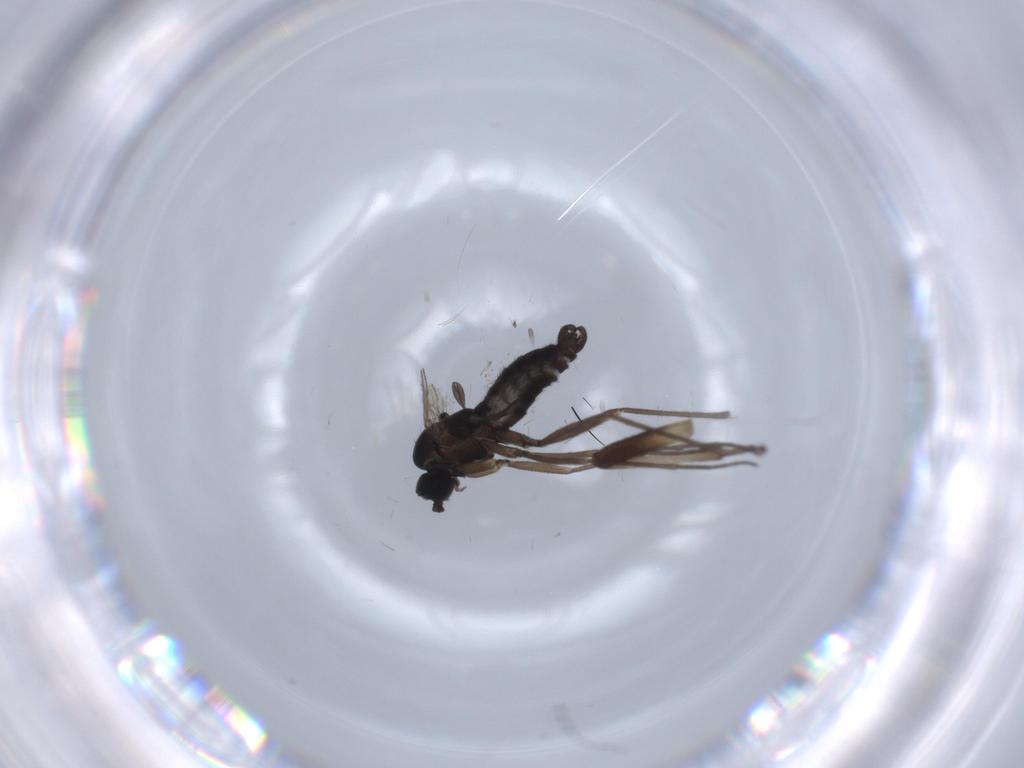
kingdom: Animalia
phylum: Arthropoda
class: Insecta
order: Diptera
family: Sciaridae
